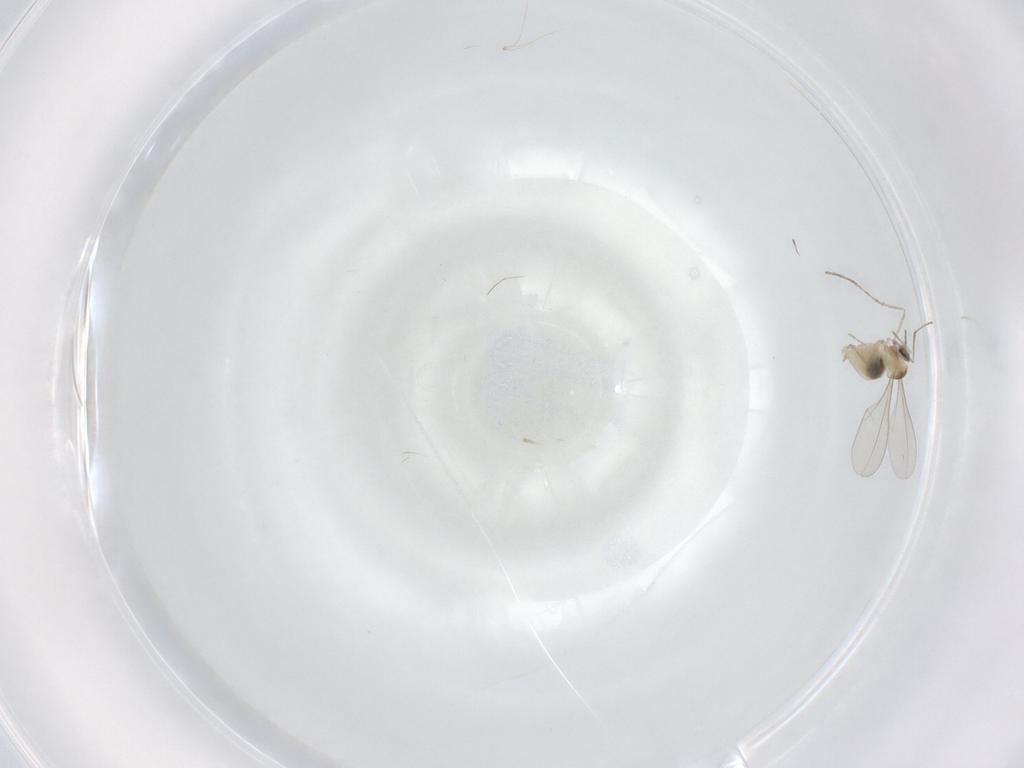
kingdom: Animalia
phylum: Arthropoda
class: Insecta
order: Diptera
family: Cecidomyiidae
